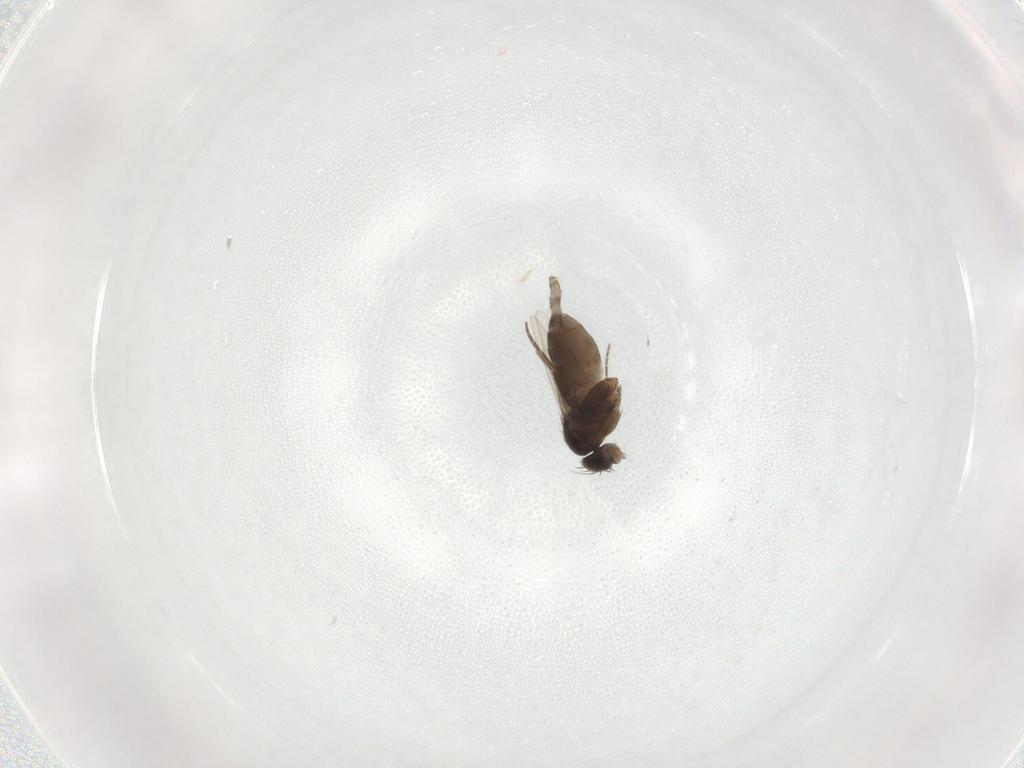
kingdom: Animalia
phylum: Arthropoda
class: Insecta
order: Diptera
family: Phoridae
